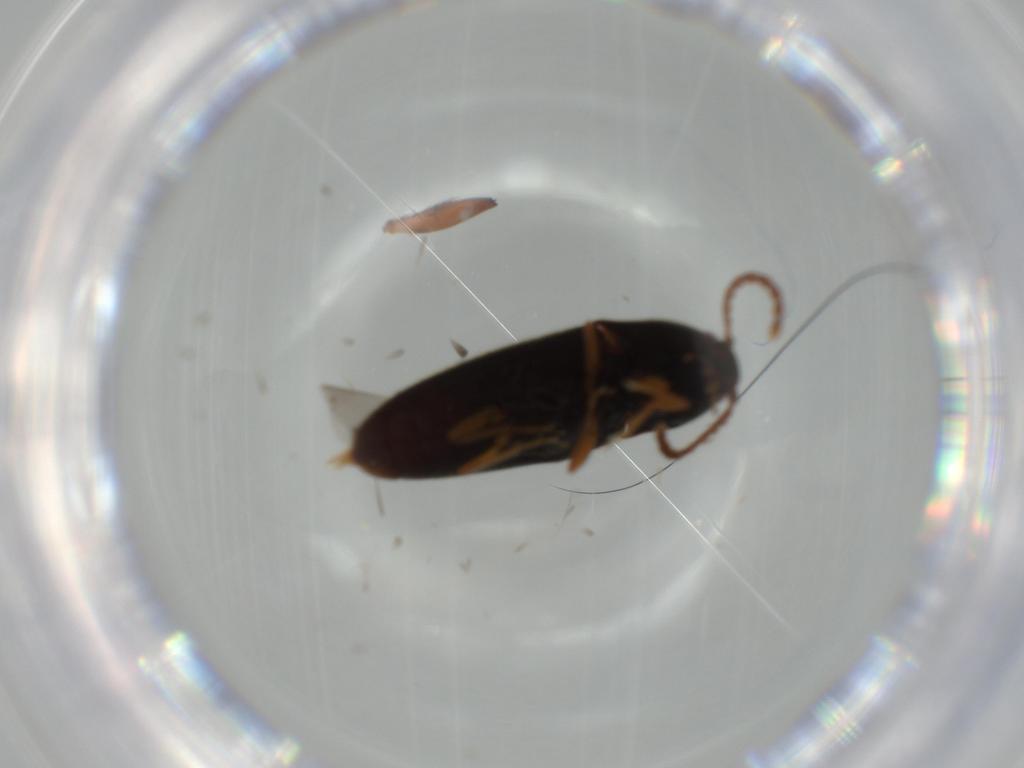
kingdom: Animalia
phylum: Arthropoda
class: Insecta
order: Coleoptera
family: Elateridae
